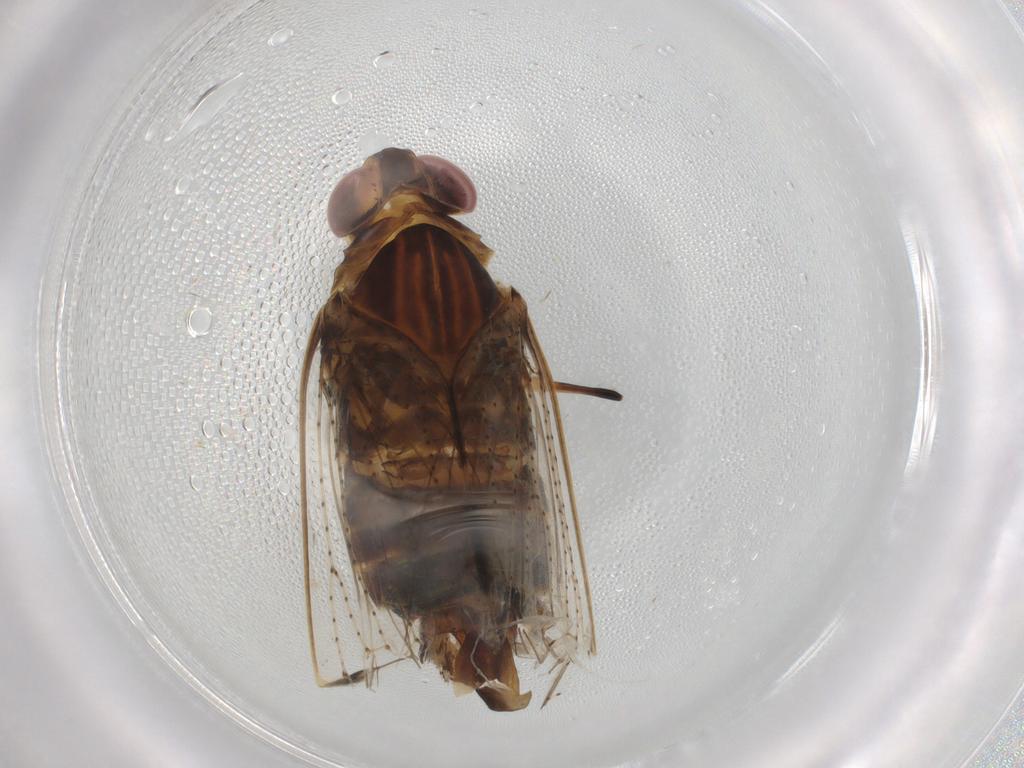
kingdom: Animalia
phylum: Arthropoda
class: Insecta
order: Hemiptera
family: Cixiidae
